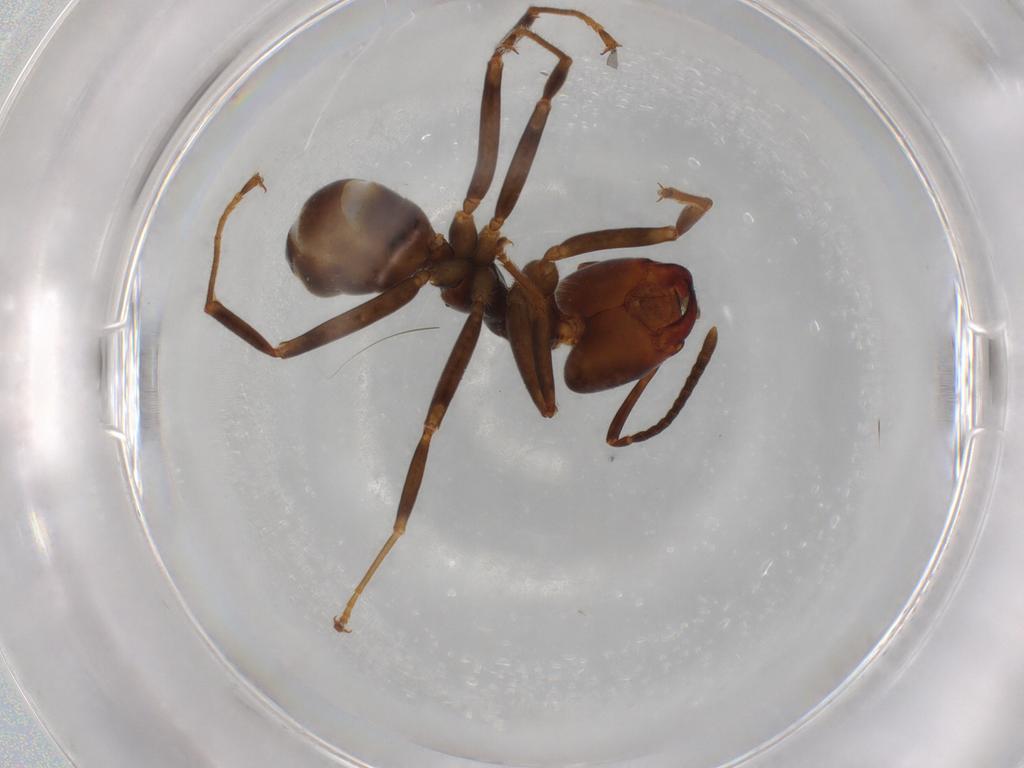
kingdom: Animalia
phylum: Arthropoda
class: Insecta
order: Hymenoptera
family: Formicidae
